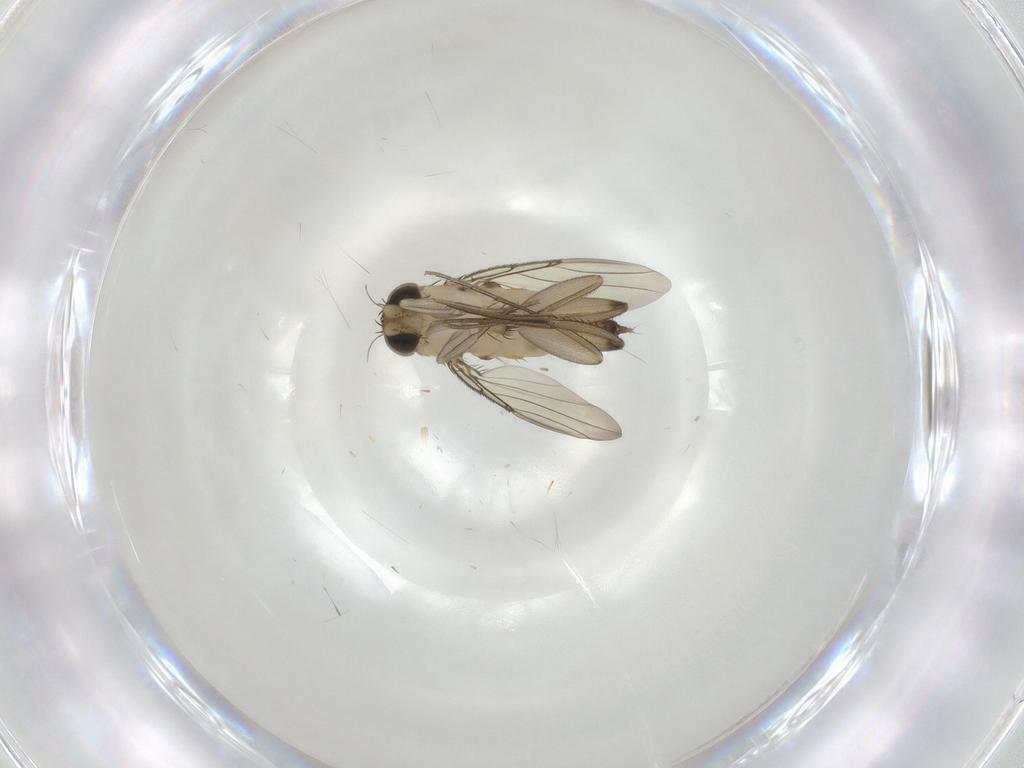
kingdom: Animalia
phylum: Arthropoda
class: Insecta
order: Diptera
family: Phoridae
